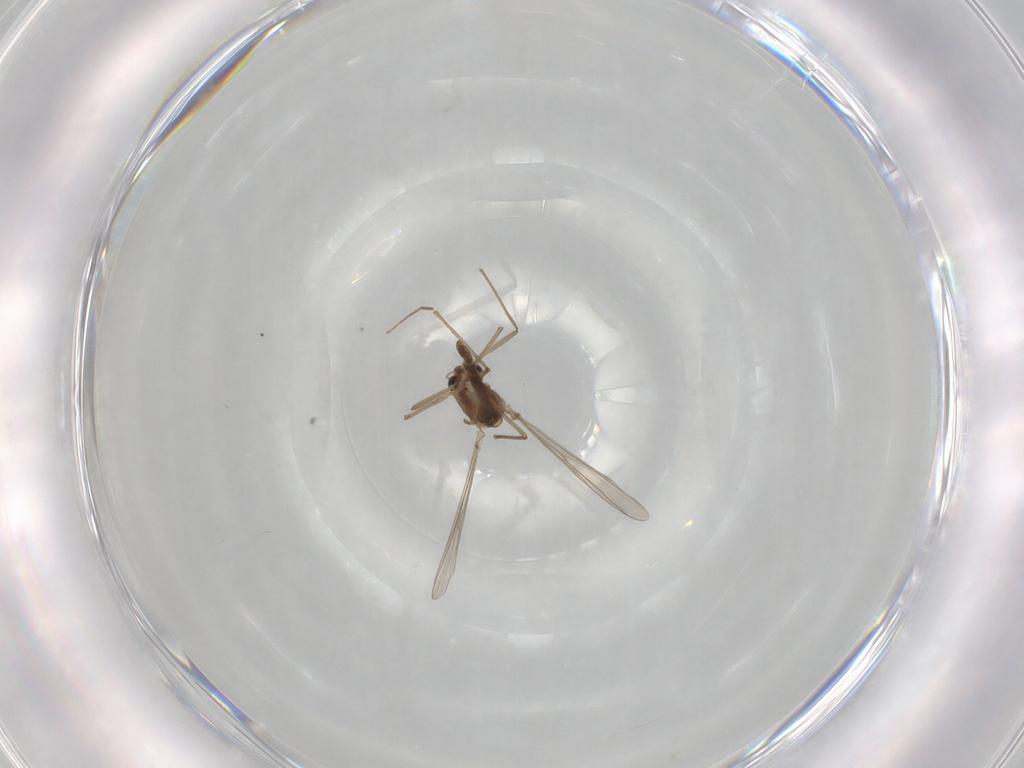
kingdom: Animalia
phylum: Arthropoda
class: Insecta
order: Diptera
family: Chironomidae
